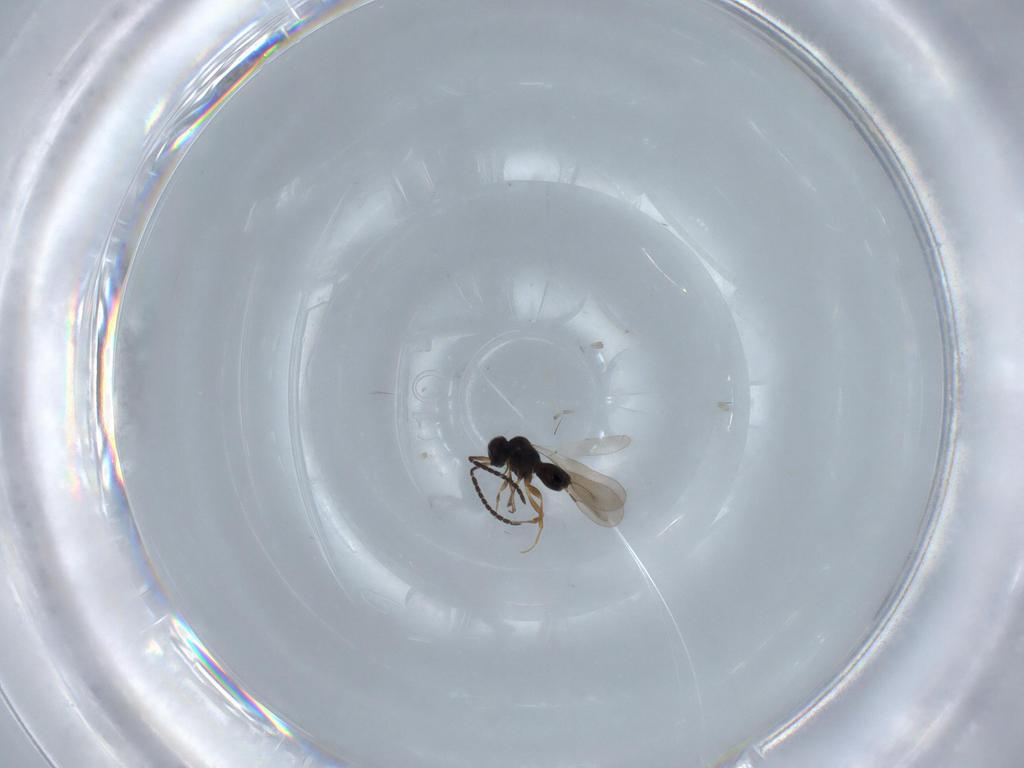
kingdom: Animalia
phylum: Arthropoda
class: Insecta
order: Hymenoptera
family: Ceraphronidae
